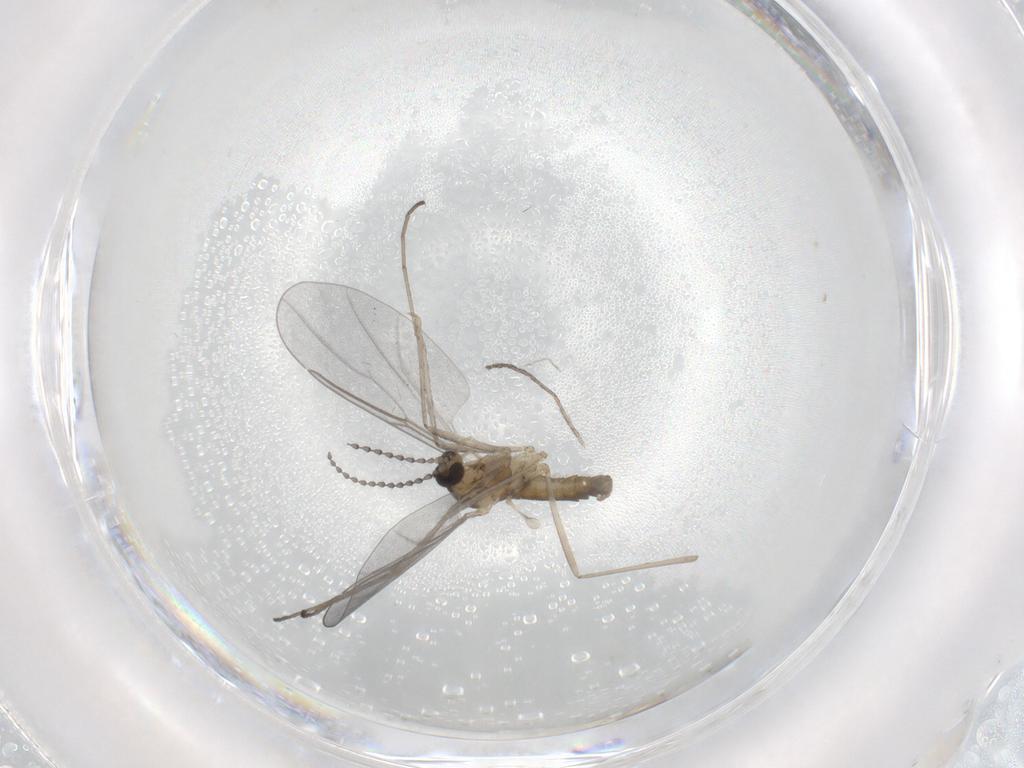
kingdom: Animalia
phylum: Arthropoda
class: Insecta
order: Diptera
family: Cecidomyiidae
